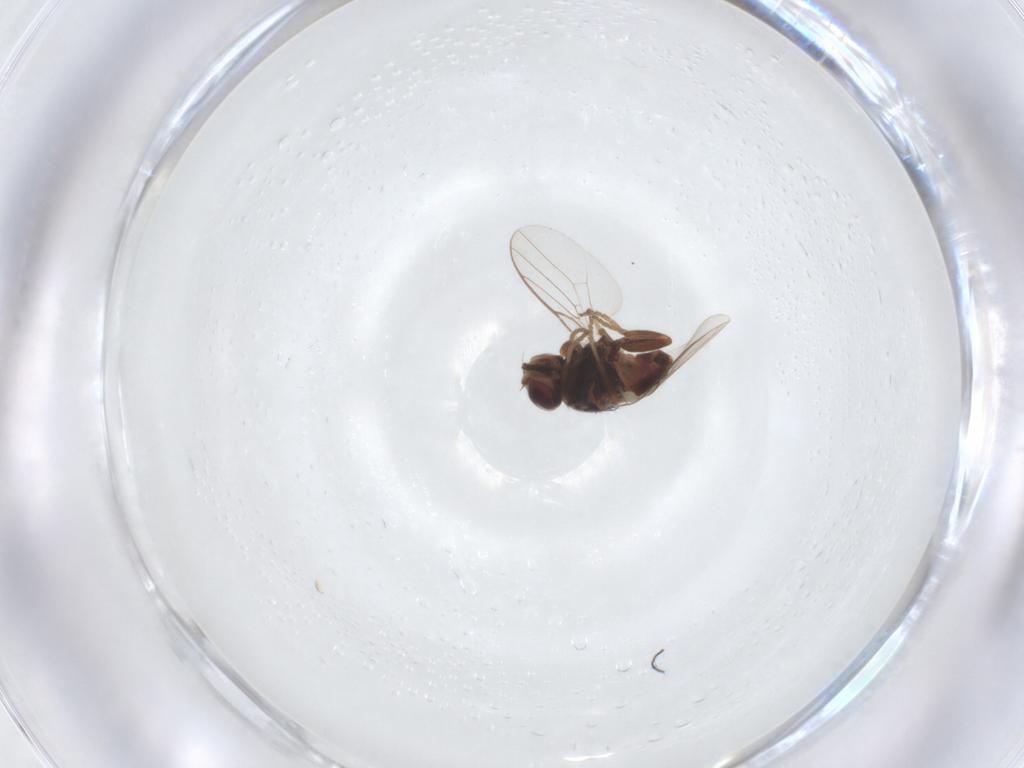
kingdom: Animalia
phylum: Arthropoda
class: Insecta
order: Diptera
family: Chloropidae
